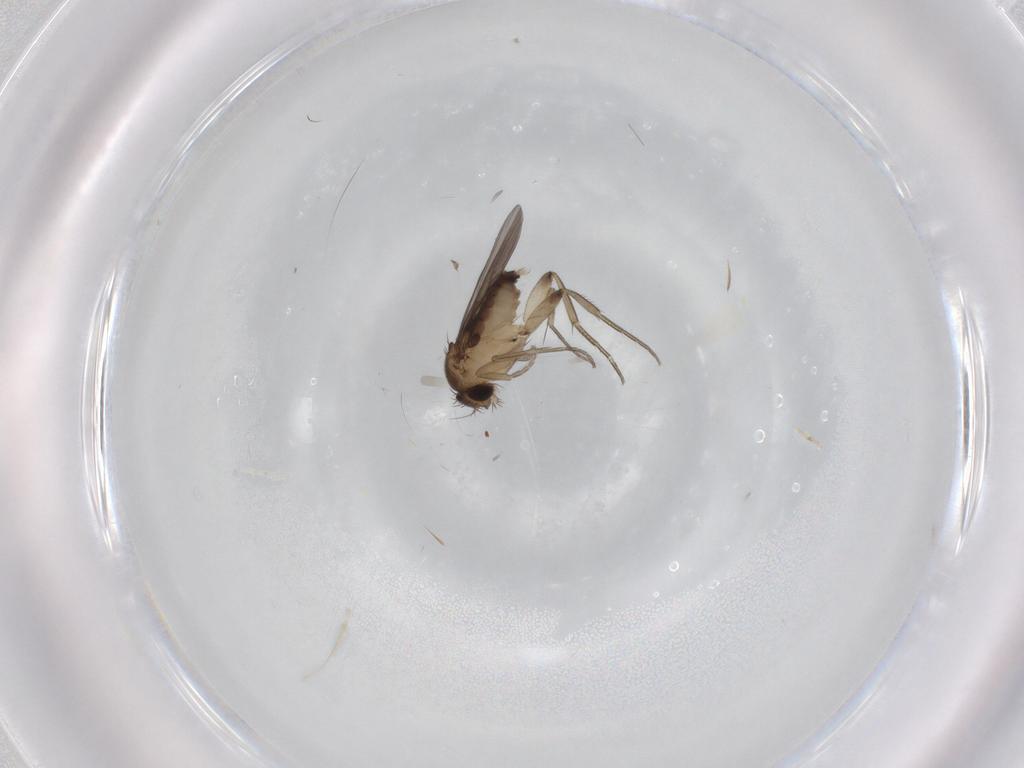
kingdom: Animalia
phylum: Arthropoda
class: Insecta
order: Diptera
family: Phoridae
